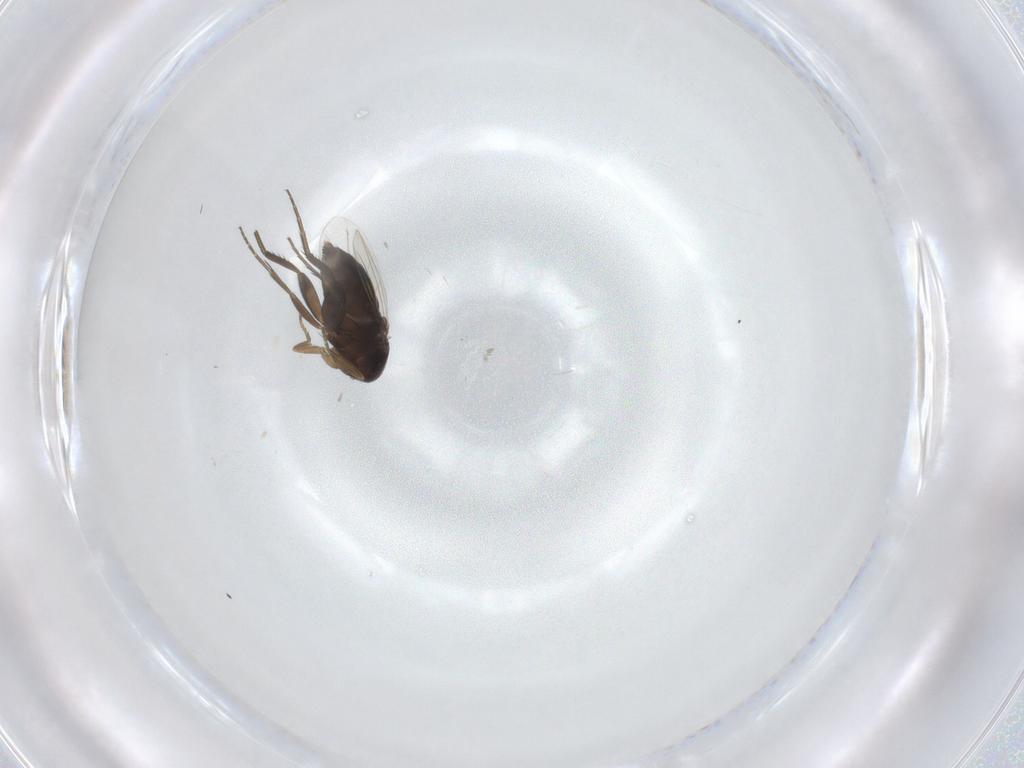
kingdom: Animalia
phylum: Arthropoda
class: Insecta
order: Diptera
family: Phoridae
